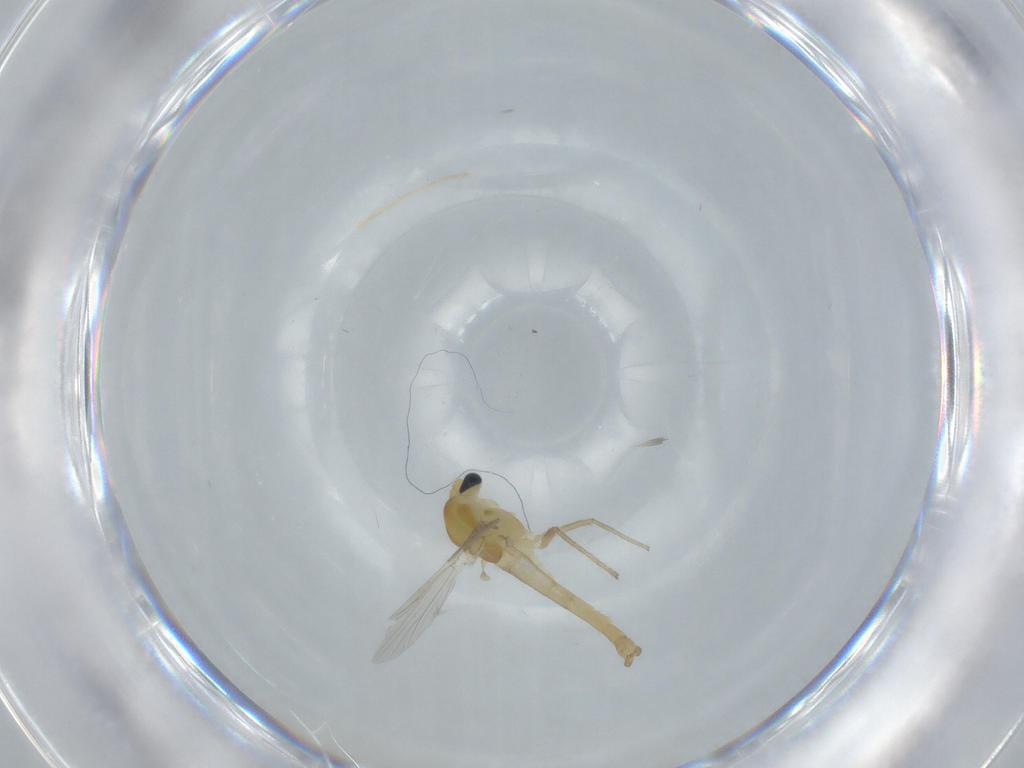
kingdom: Animalia
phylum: Arthropoda
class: Insecta
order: Diptera
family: Chironomidae
